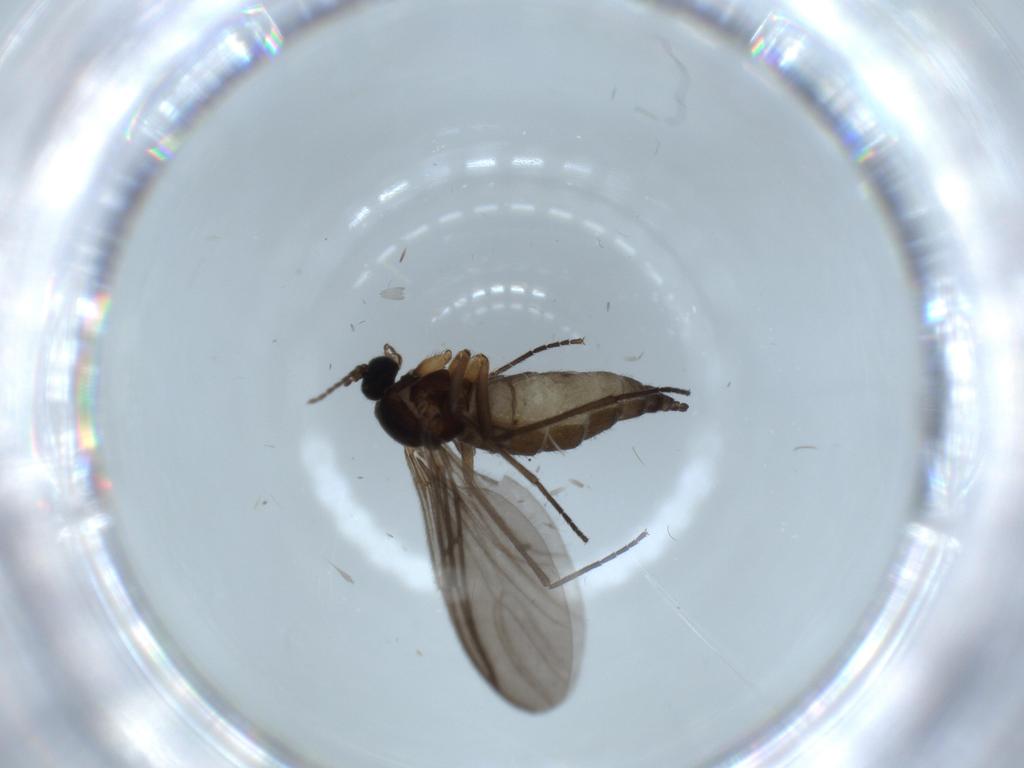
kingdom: Animalia
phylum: Arthropoda
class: Insecta
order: Diptera
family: Sciaridae
